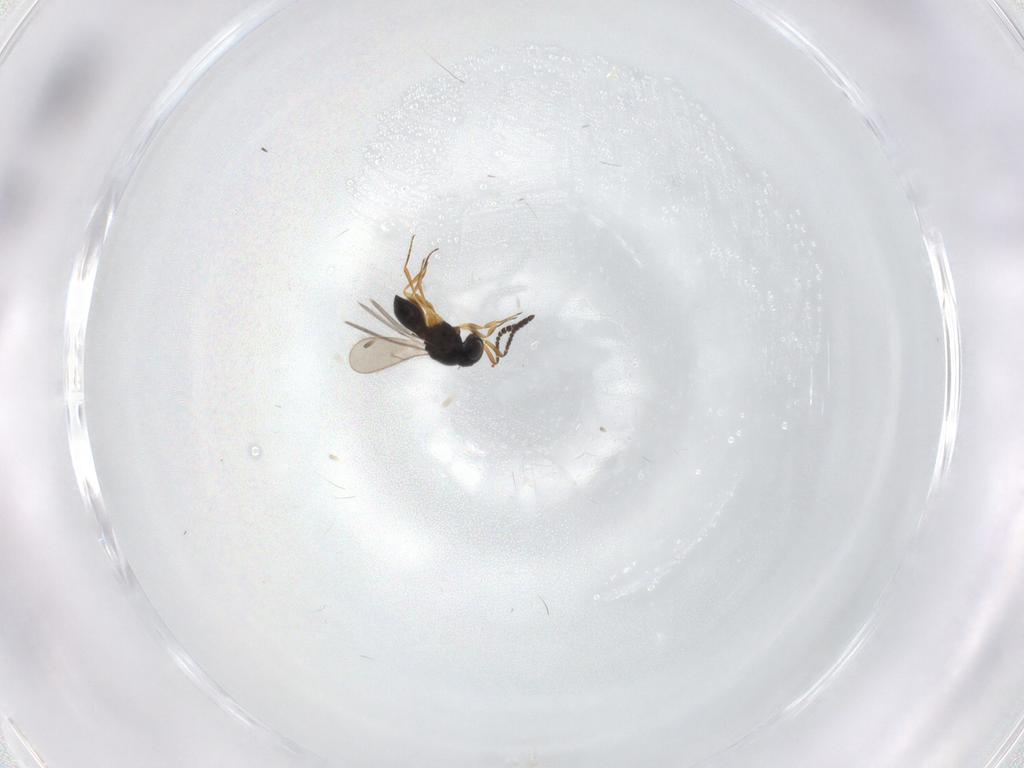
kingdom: Animalia
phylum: Arthropoda
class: Insecta
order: Hymenoptera
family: Scelionidae
